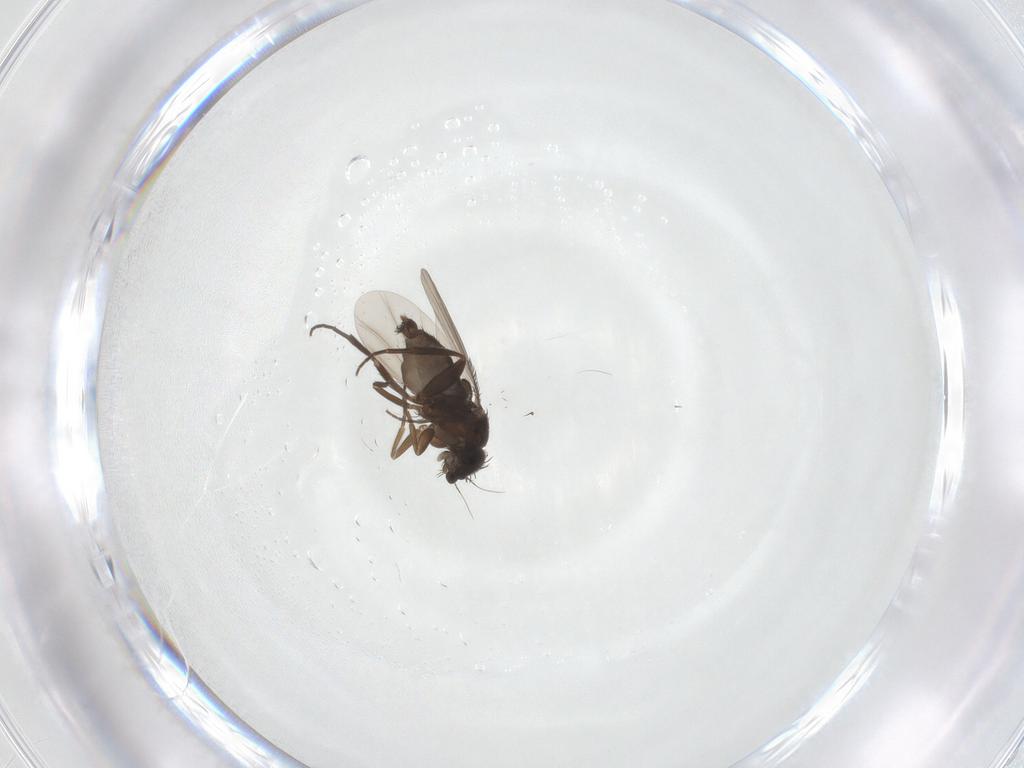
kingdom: Animalia
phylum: Arthropoda
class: Insecta
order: Diptera
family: Phoridae
